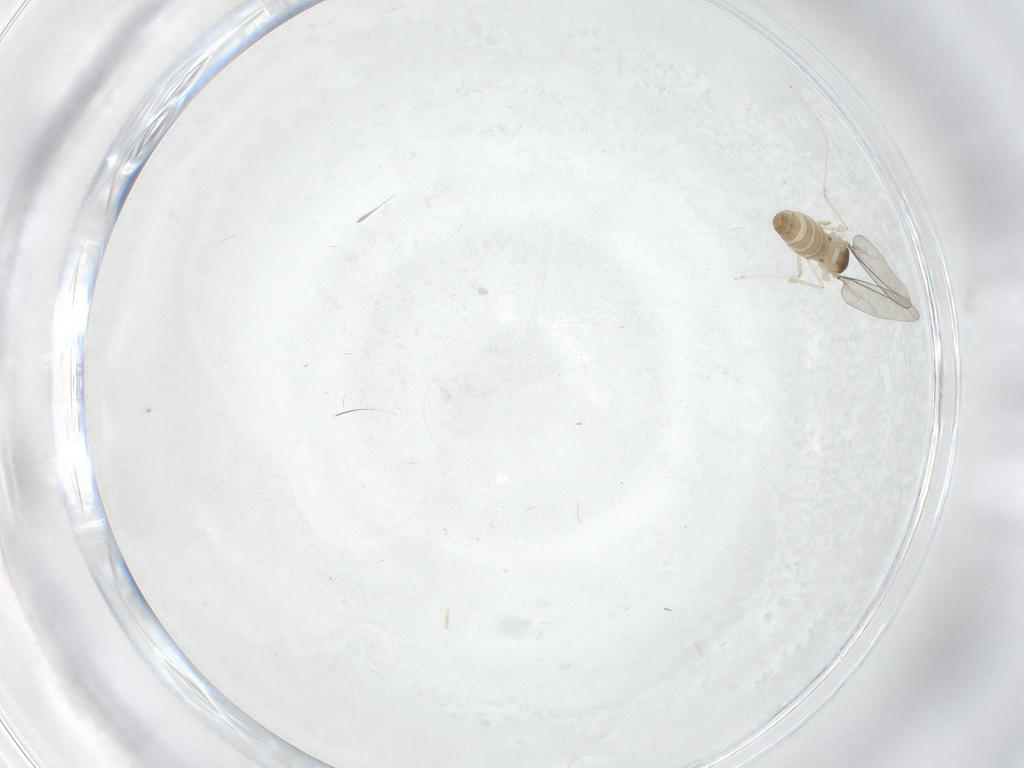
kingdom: Animalia
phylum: Arthropoda
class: Insecta
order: Diptera
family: Cecidomyiidae
